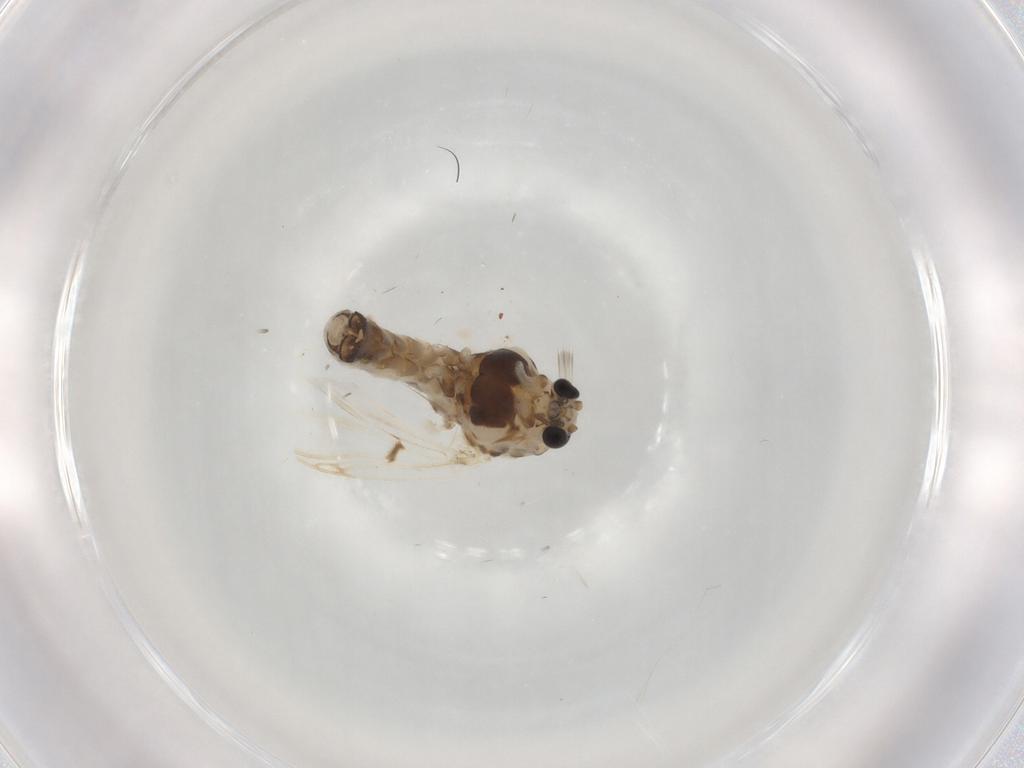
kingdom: Animalia
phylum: Arthropoda
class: Insecta
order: Diptera
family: Chironomidae
